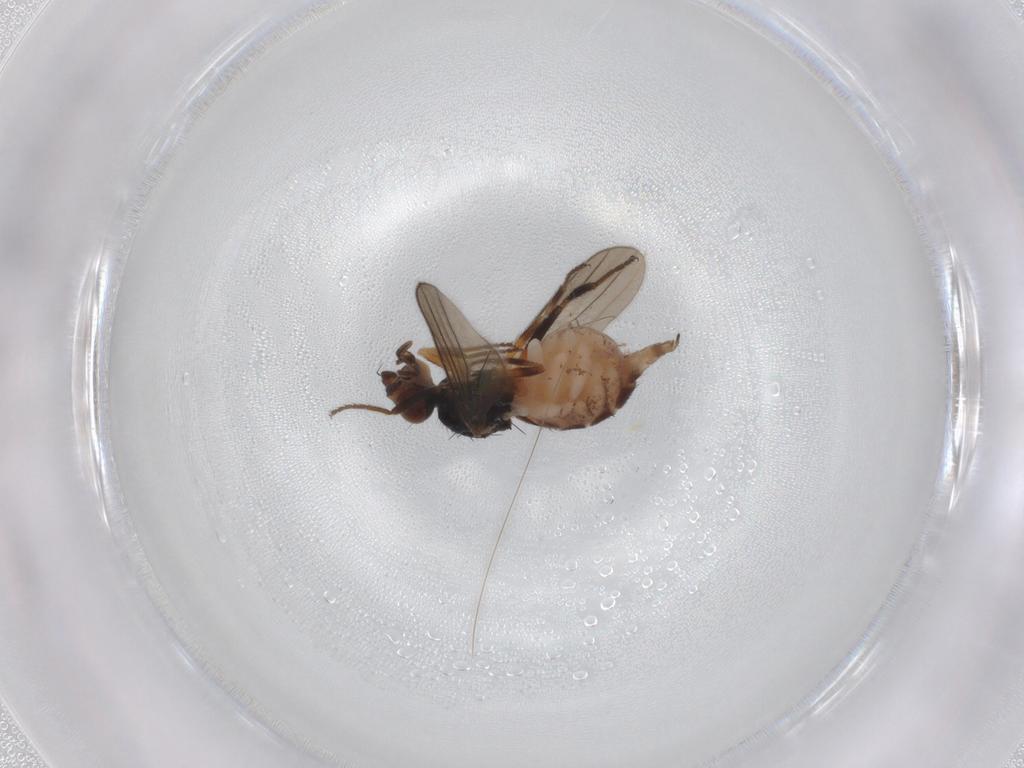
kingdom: Animalia
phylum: Arthropoda
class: Insecta
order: Diptera
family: Chloropidae
